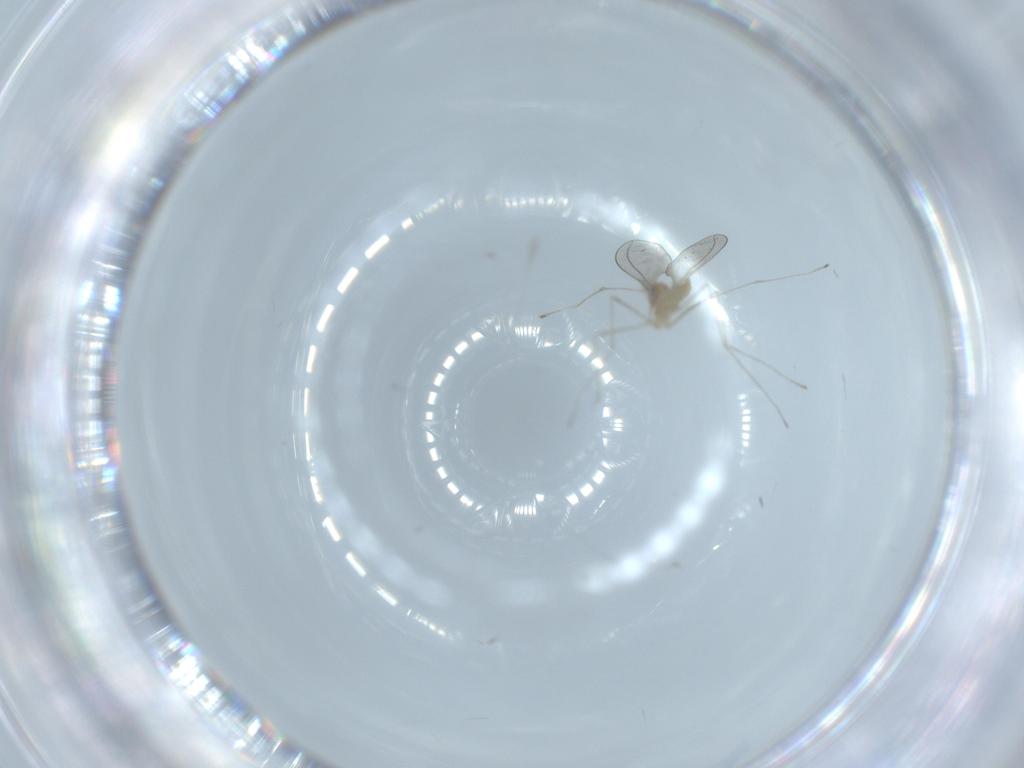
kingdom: Animalia
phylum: Arthropoda
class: Insecta
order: Diptera
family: Cecidomyiidae
